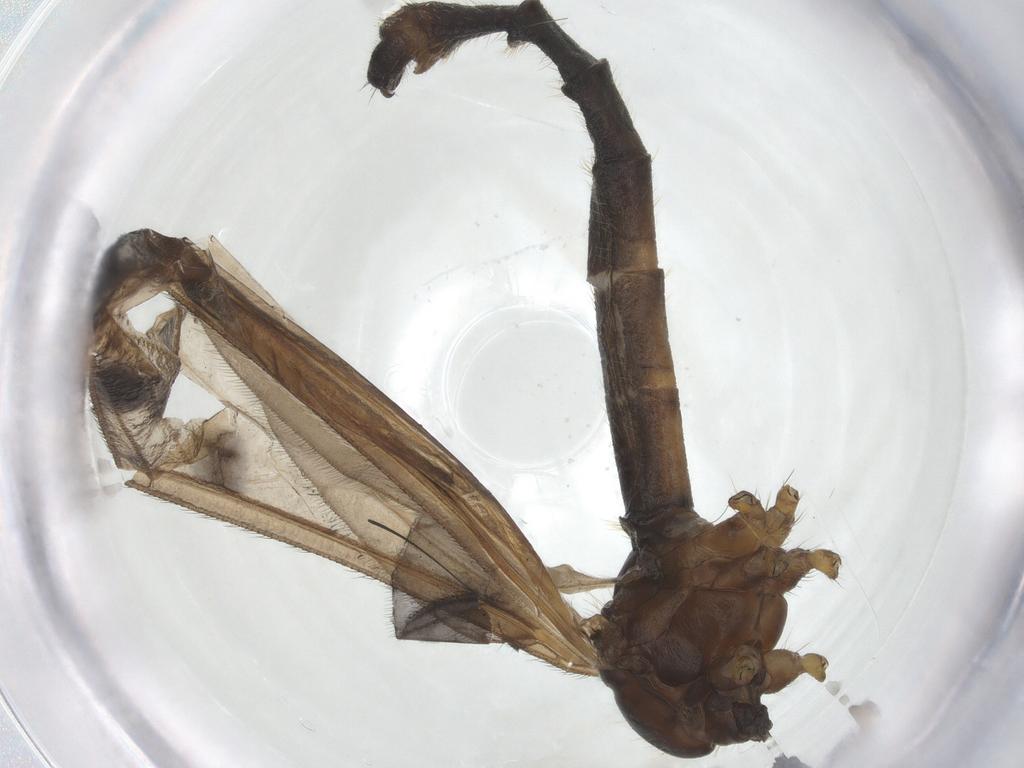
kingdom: Animalia
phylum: Arthropoda
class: Insecta
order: Diptera
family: Limoniidae
